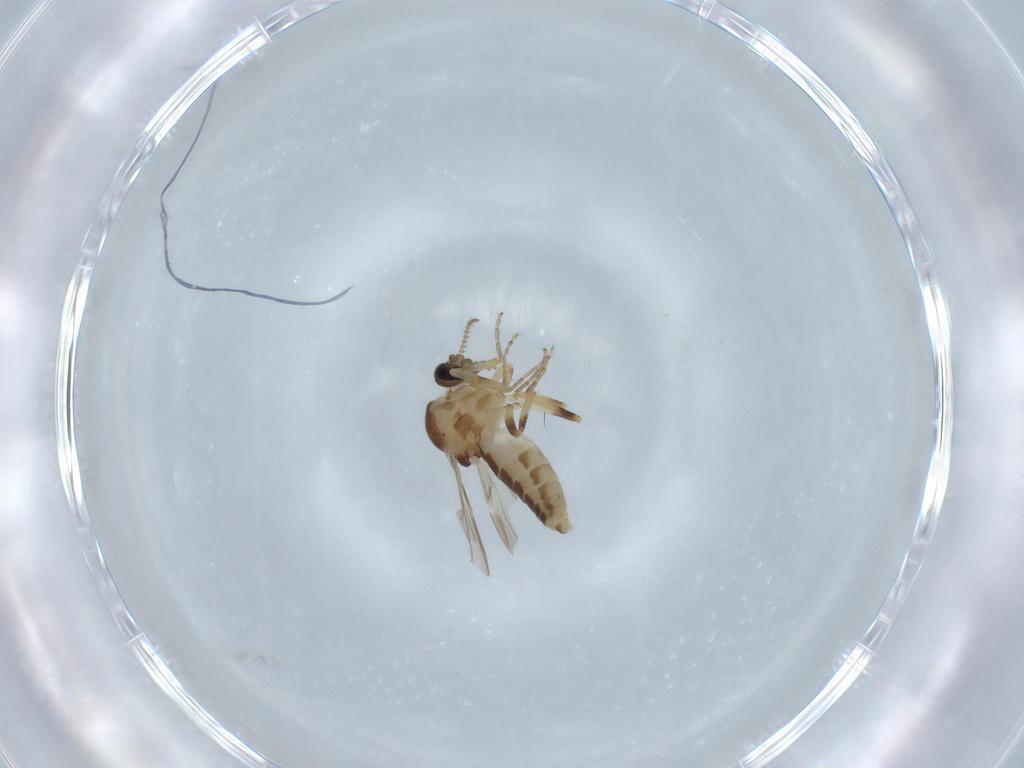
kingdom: Animalia
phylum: Arthropoda
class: Insecta
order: Diptera
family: Ceratopogonidae
